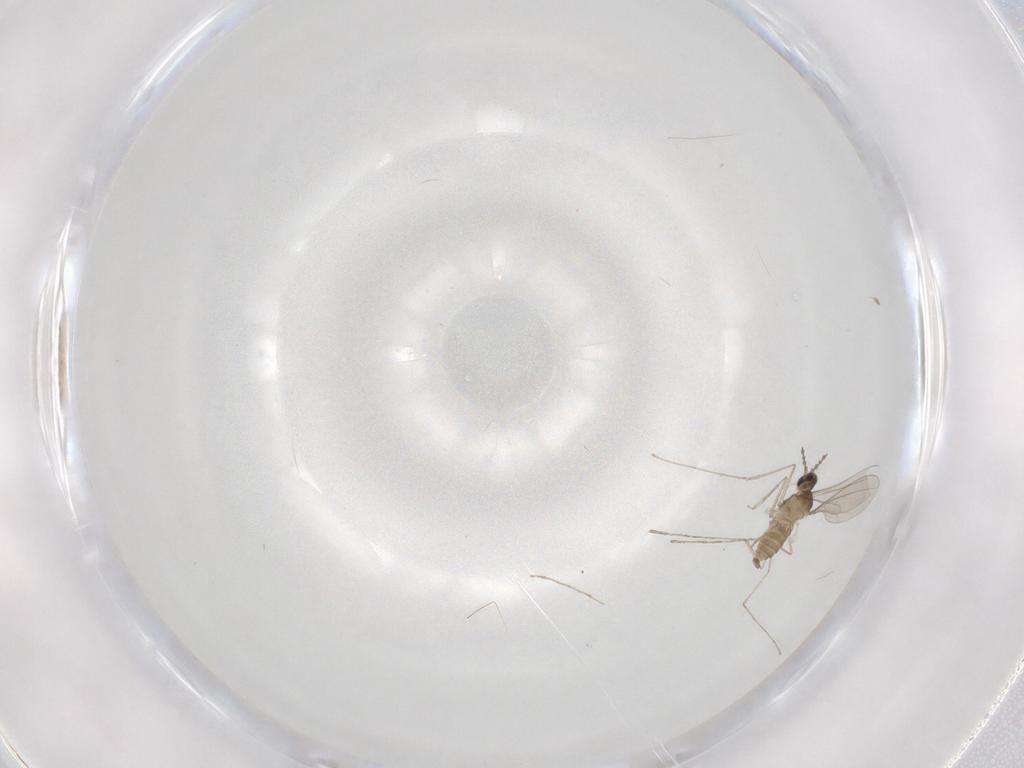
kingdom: Animalia
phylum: Arthropoda
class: Insecta
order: Diptera
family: Cecidomyiidae
